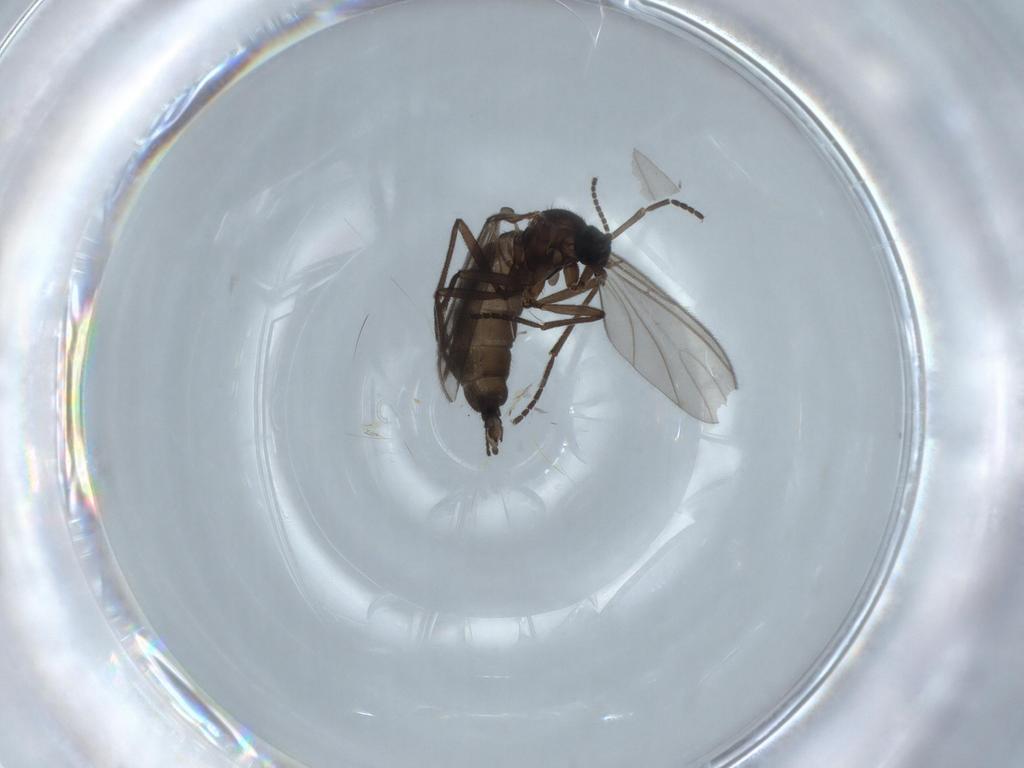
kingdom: Animalia
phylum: Arthropoda
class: Insecta
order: Diptera
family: Sciaridae
